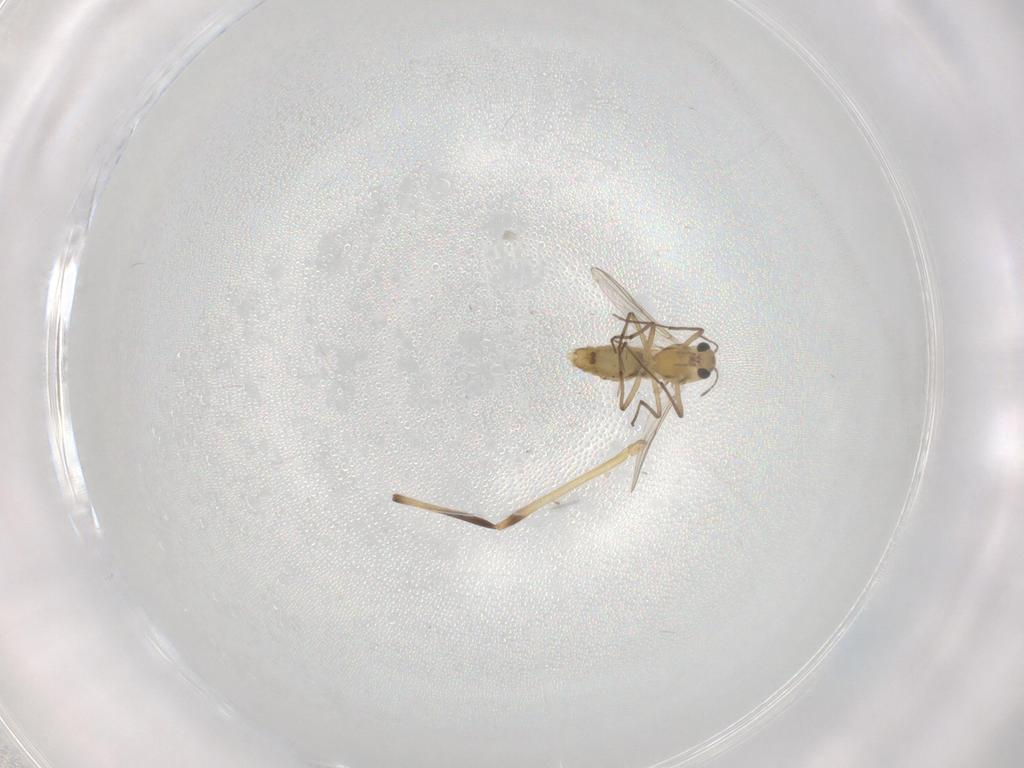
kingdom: Animalia
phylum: Arthropoda
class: Insecta
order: Diptera
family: Chironomidae
